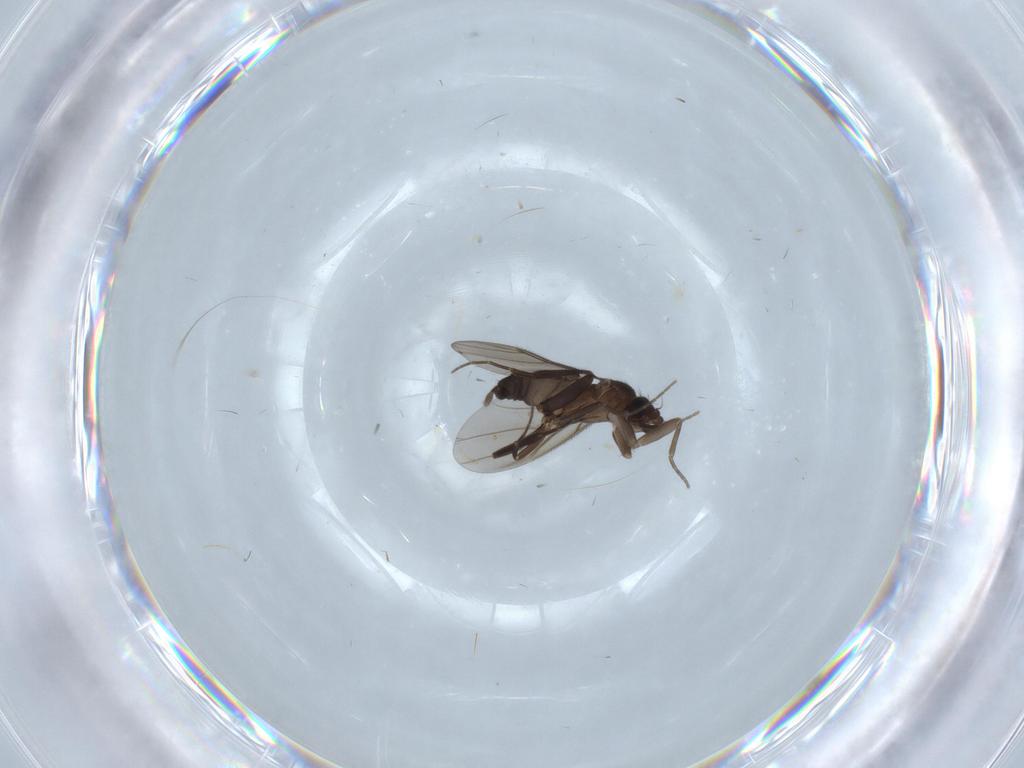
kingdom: Animalia
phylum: Arthropoda
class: Insecta
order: Diptera
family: Phoridae
